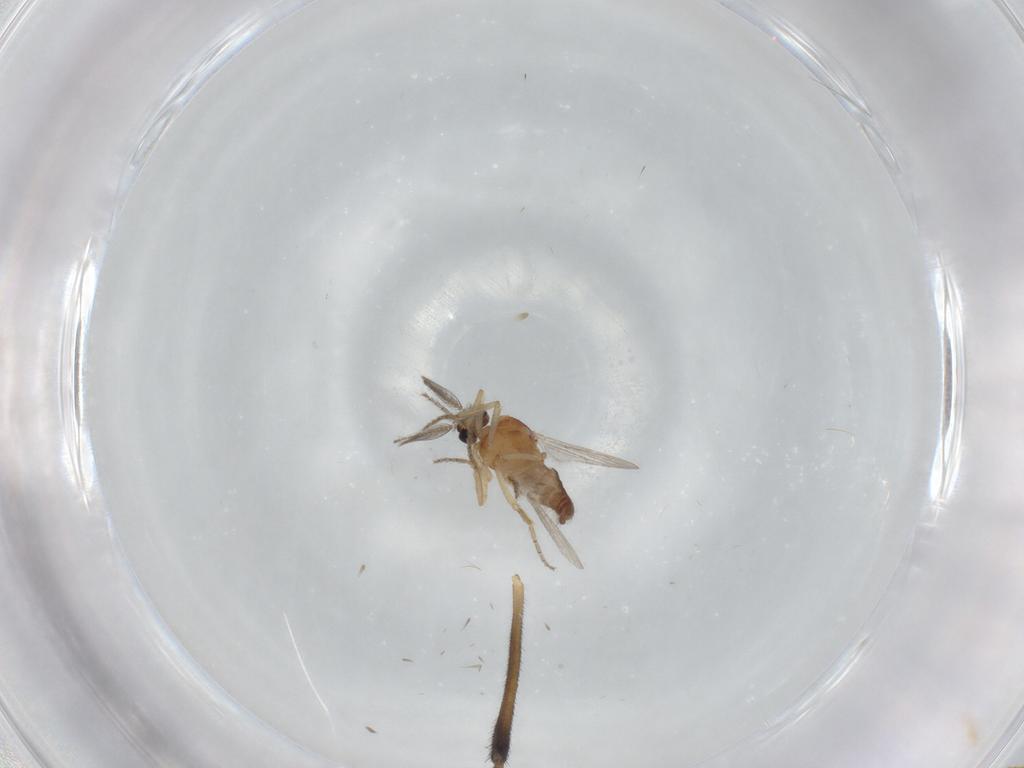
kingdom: Animalia
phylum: Arthropoda
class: Insecta
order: Diptera
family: Ceratopogonidae
